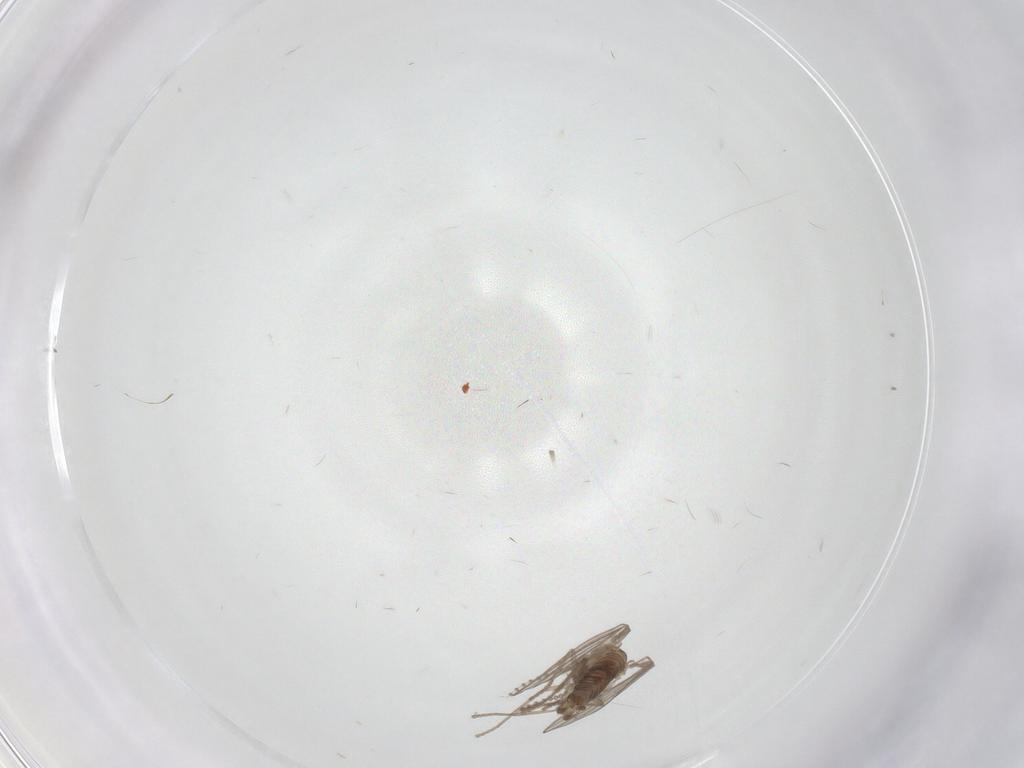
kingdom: Animalia
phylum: Arthropoda
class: Insecta
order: Diptera
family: Psychodidae
